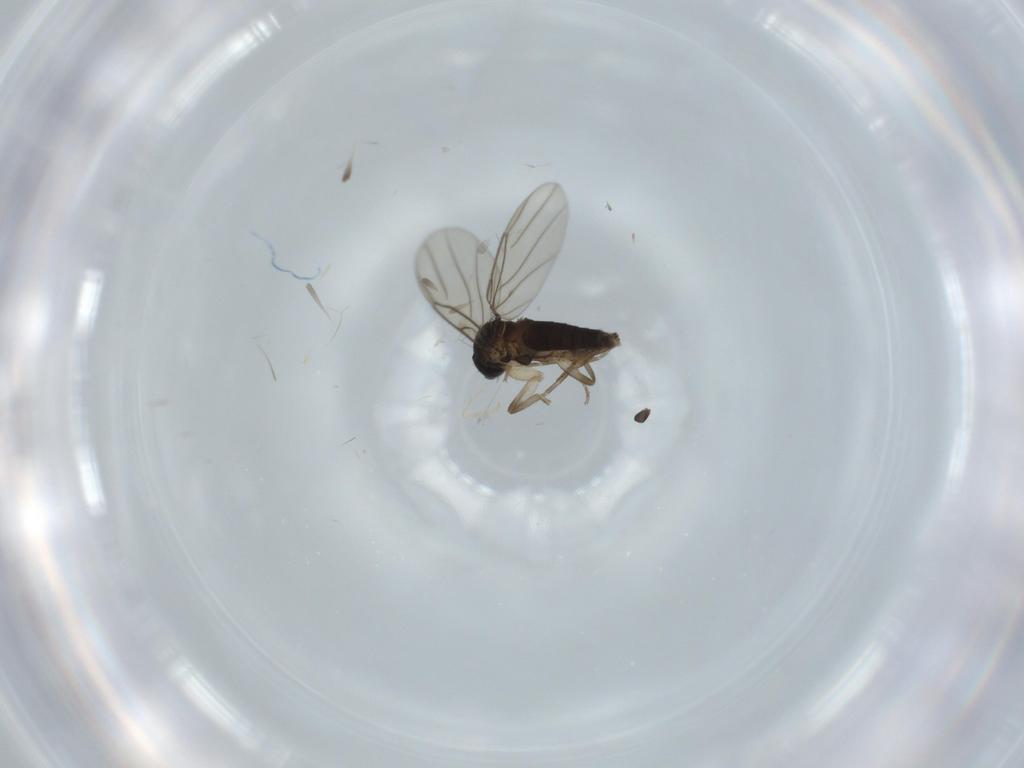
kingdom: Animalia
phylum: Arthropoda
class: Insecta
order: Diptera
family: Phoridae
